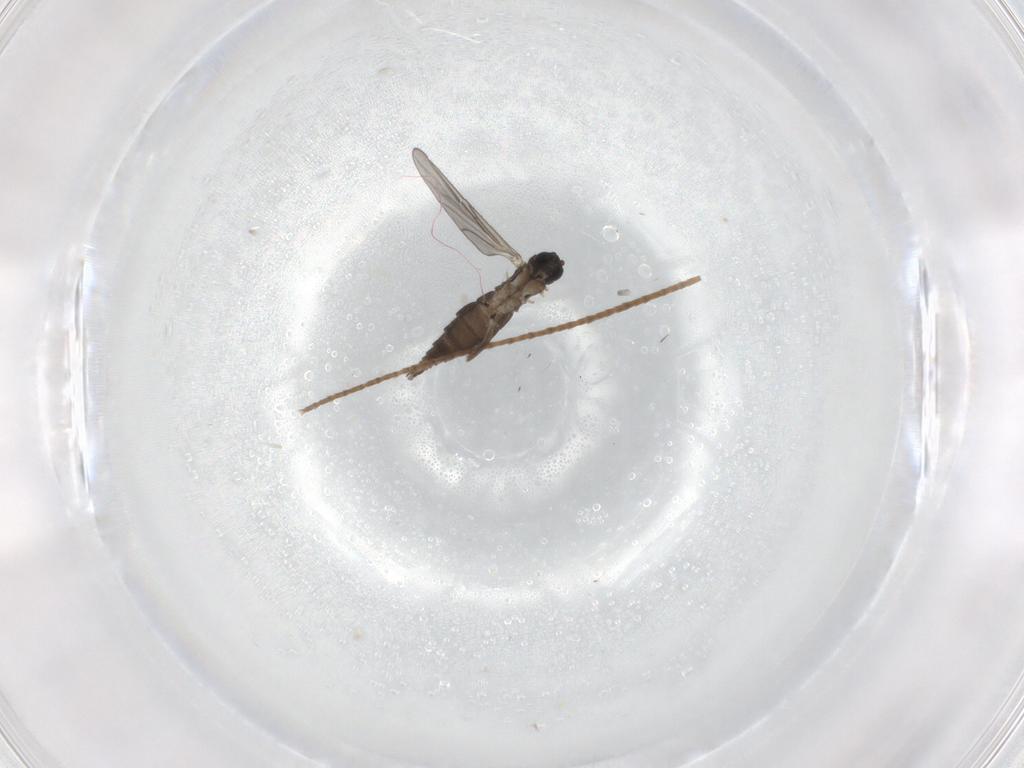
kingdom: Animalia
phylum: Arthropoda
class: Insecta
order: Diptera
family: Sciaridae
